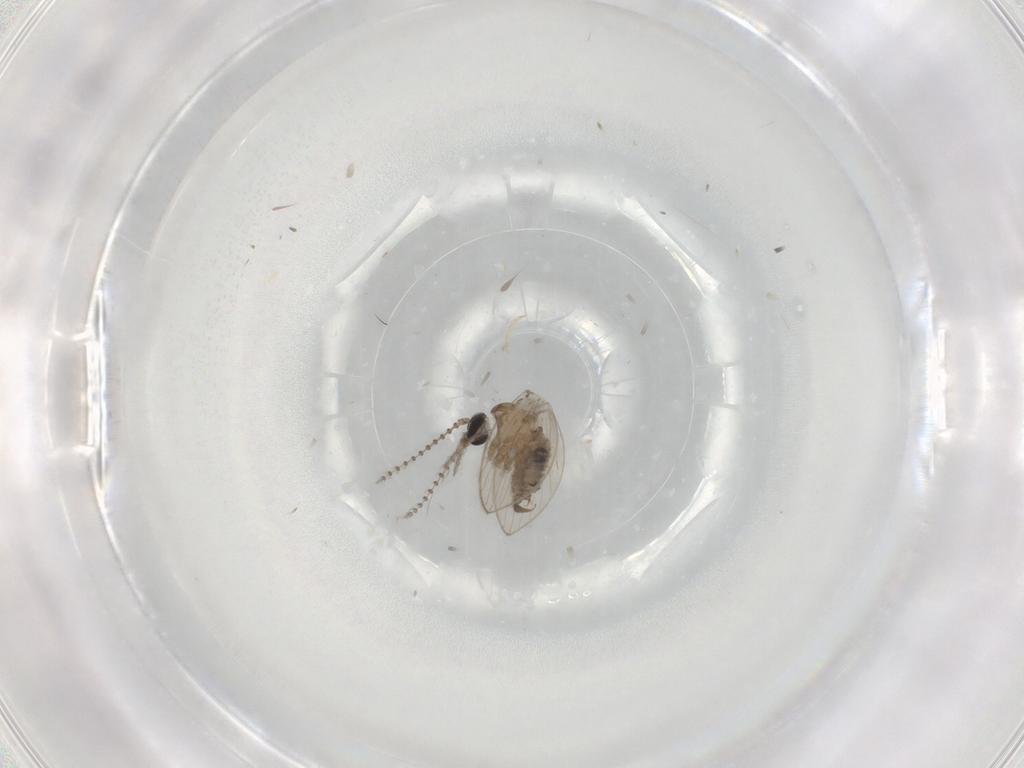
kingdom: Animalia
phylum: Arthropoda
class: Insecta
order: Diptera
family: Psychodidae
